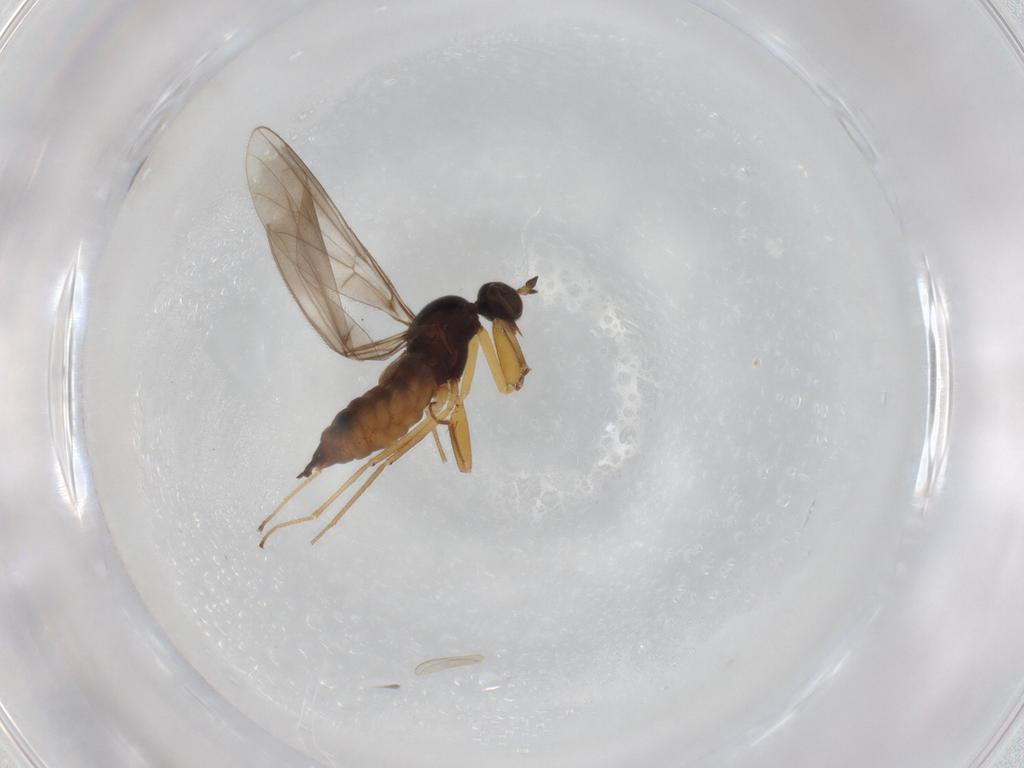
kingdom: Animalia
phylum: Arthropoda
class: Insecta
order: Diptera
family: Empididae
